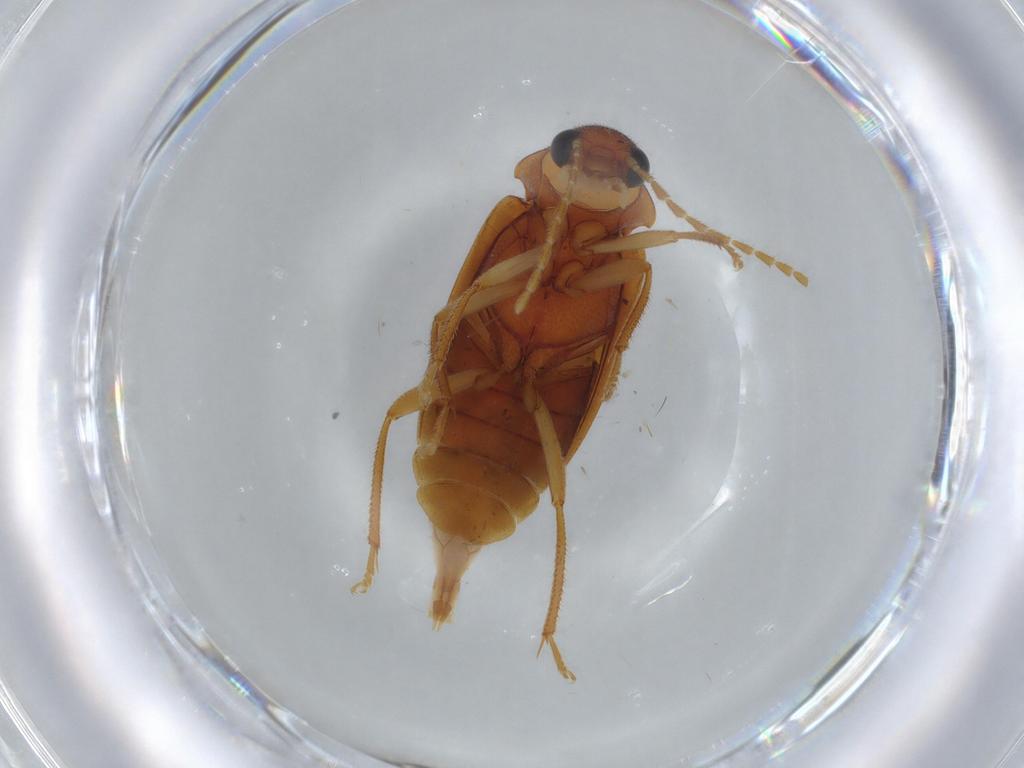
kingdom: Animalia
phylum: Arthropoda
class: Insecta
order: Coleoptera
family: Ptilodactylidae
